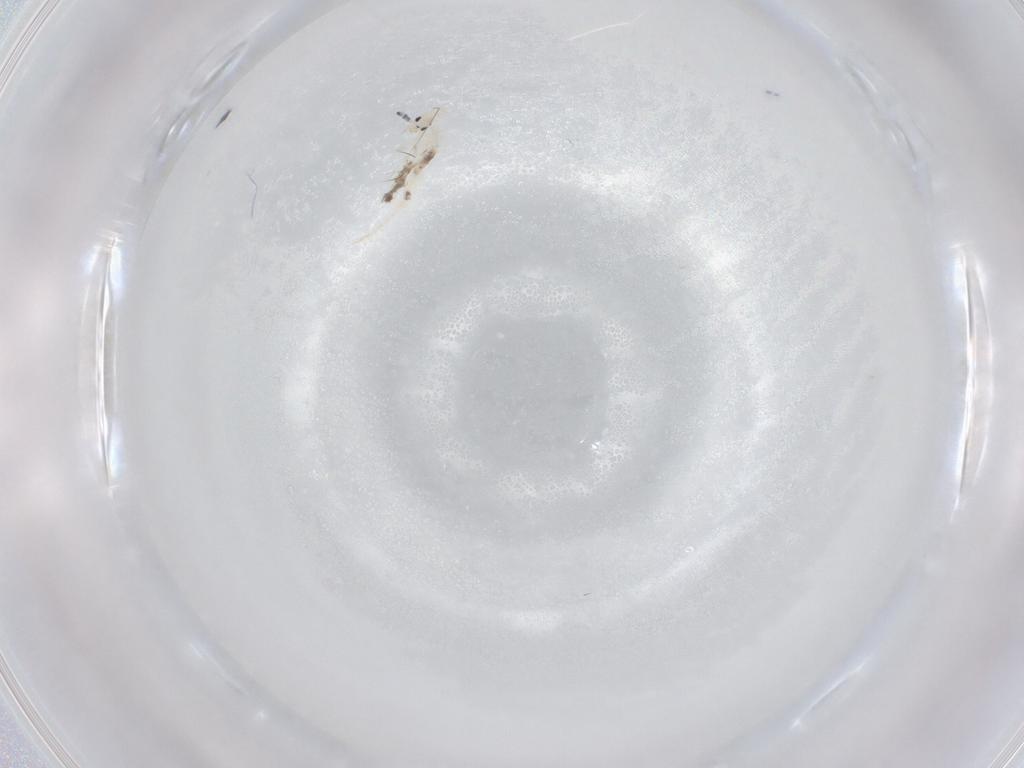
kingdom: Animalia
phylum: Arthropoda
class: Collembola
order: Entomobryomorpha
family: Entomobryidae
